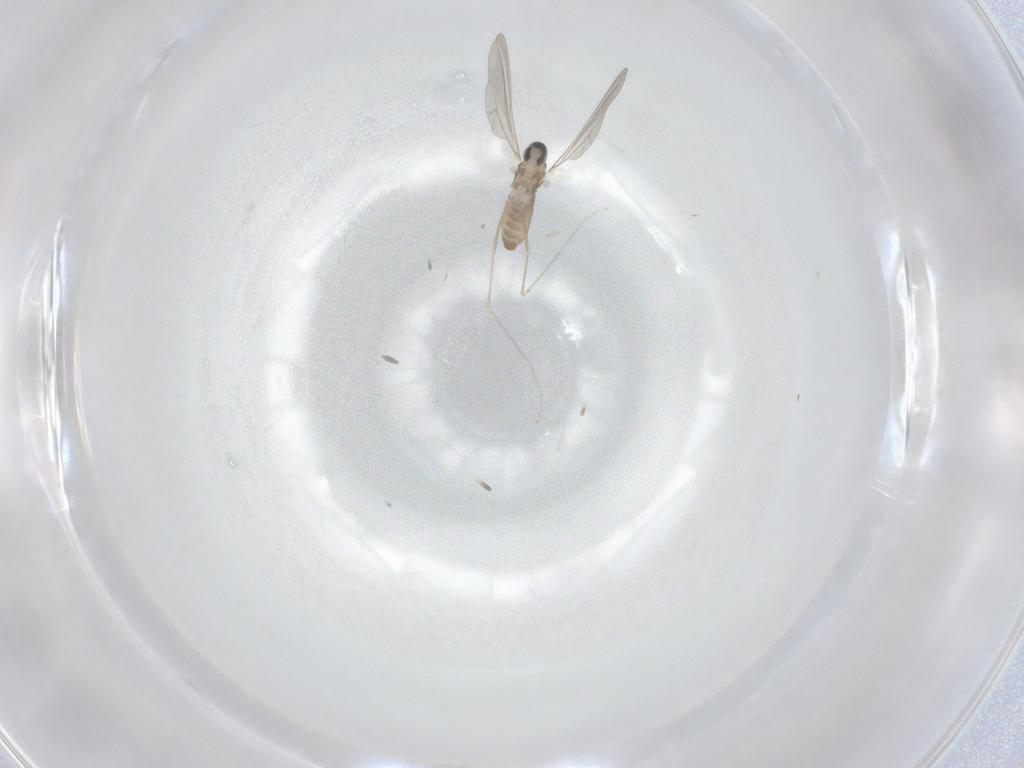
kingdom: Animalia
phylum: Arthropoda
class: Insecta
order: Diptera
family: Cecidomyiidae
